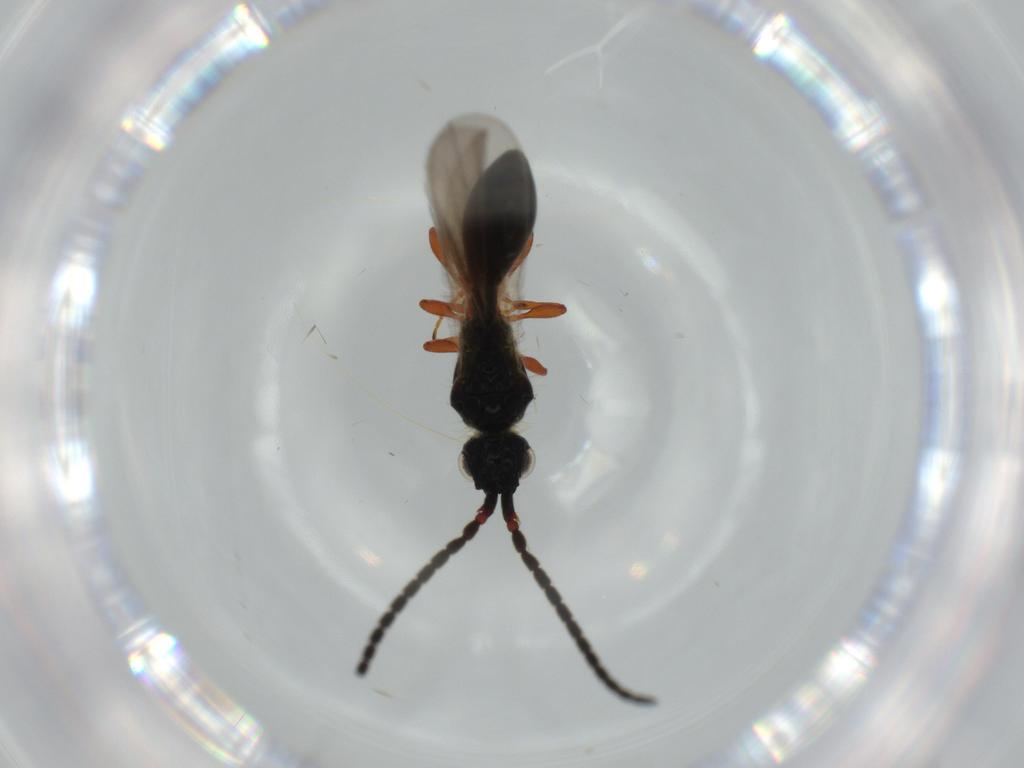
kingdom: Animalia
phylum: Arthropoda
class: Insecta
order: Hymenoptera
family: Diapriidae
